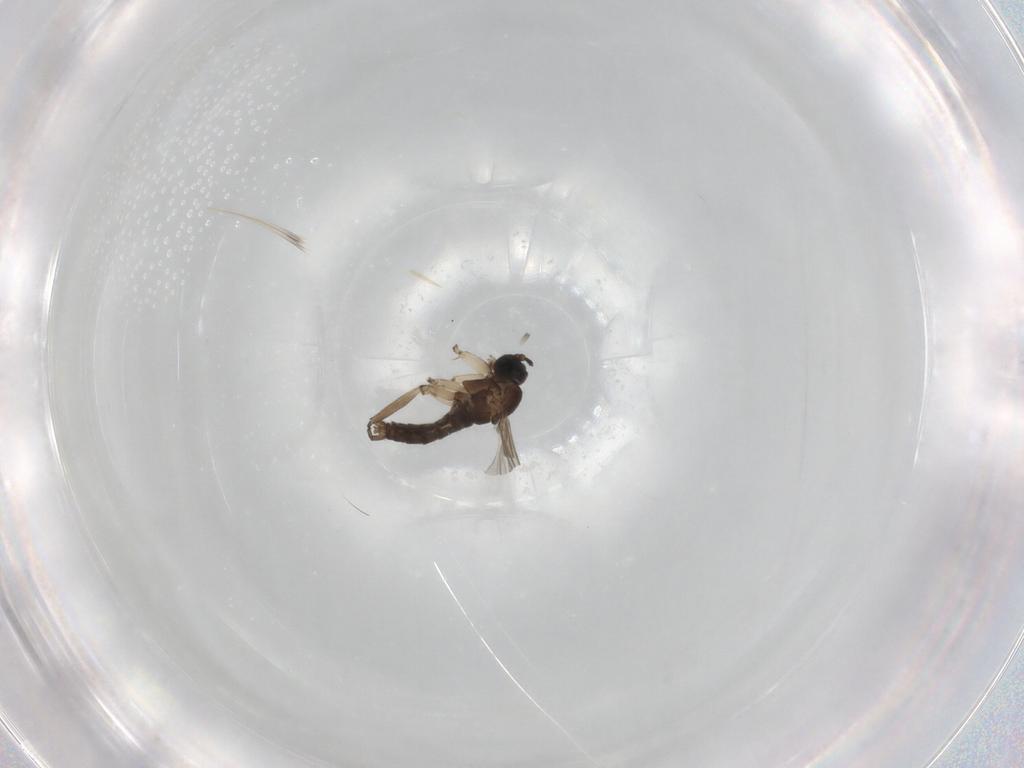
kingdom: Animalia
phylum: Arthropoda
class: Insecta
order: Diptera
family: Sciaridae
